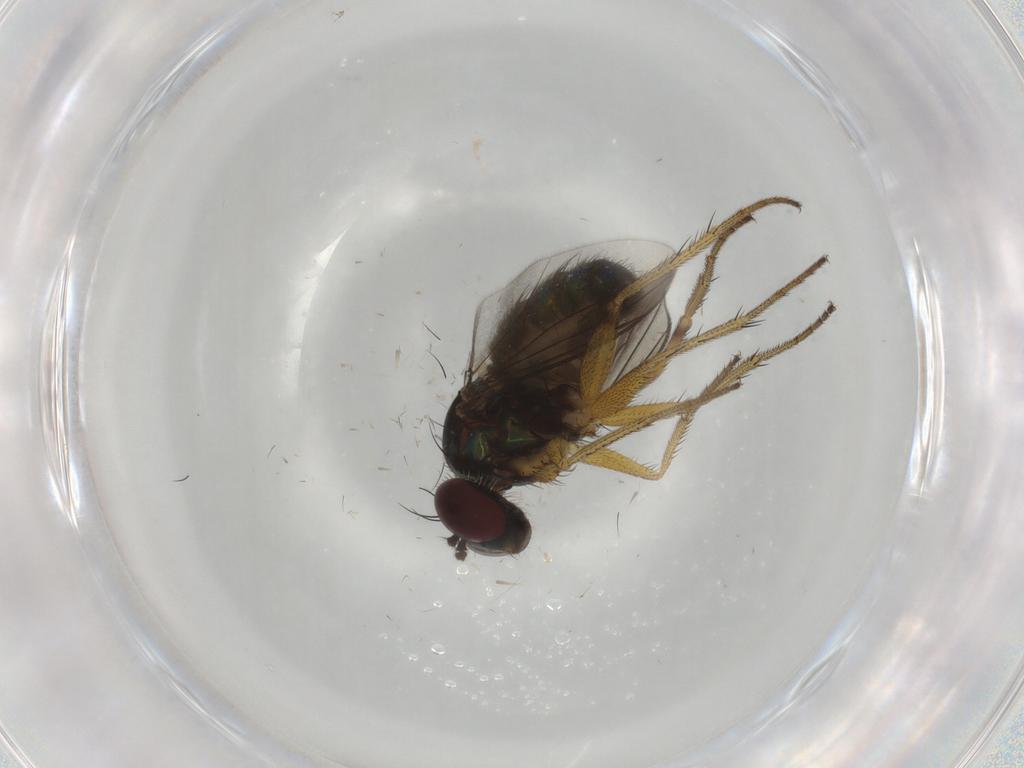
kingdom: Animalia
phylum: Arthropoda
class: Insecta
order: Diptera
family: Dolichopodidae
